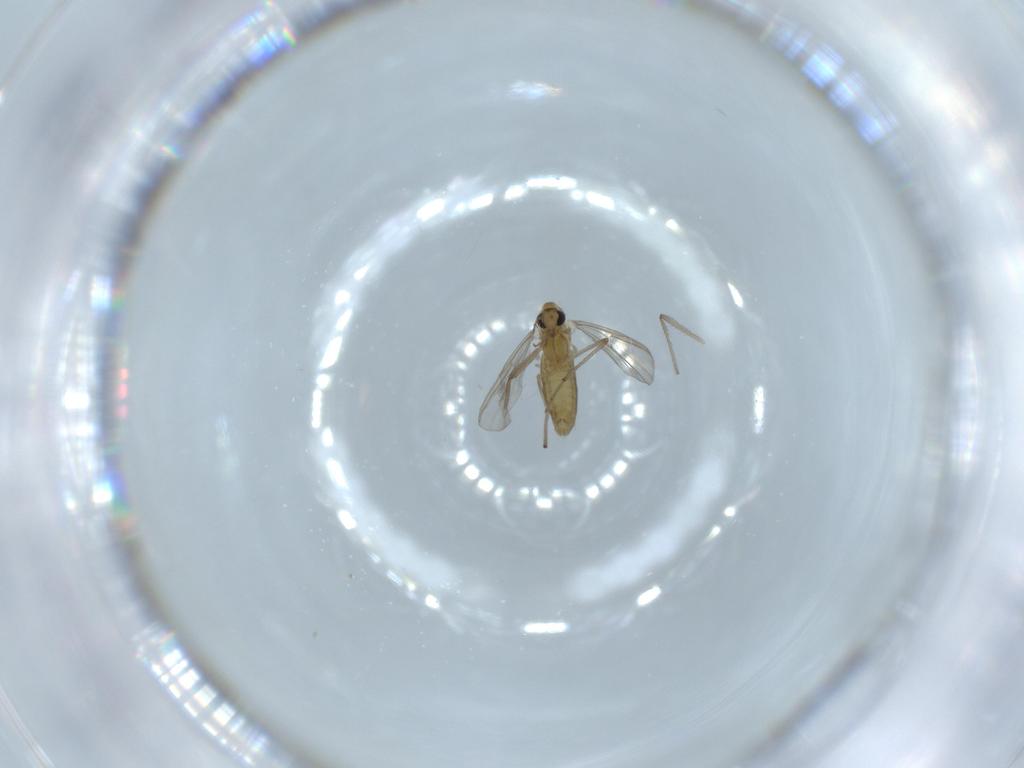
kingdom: Animalia
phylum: Arthropoda
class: Insecta
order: Diptera
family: Chironomidae
